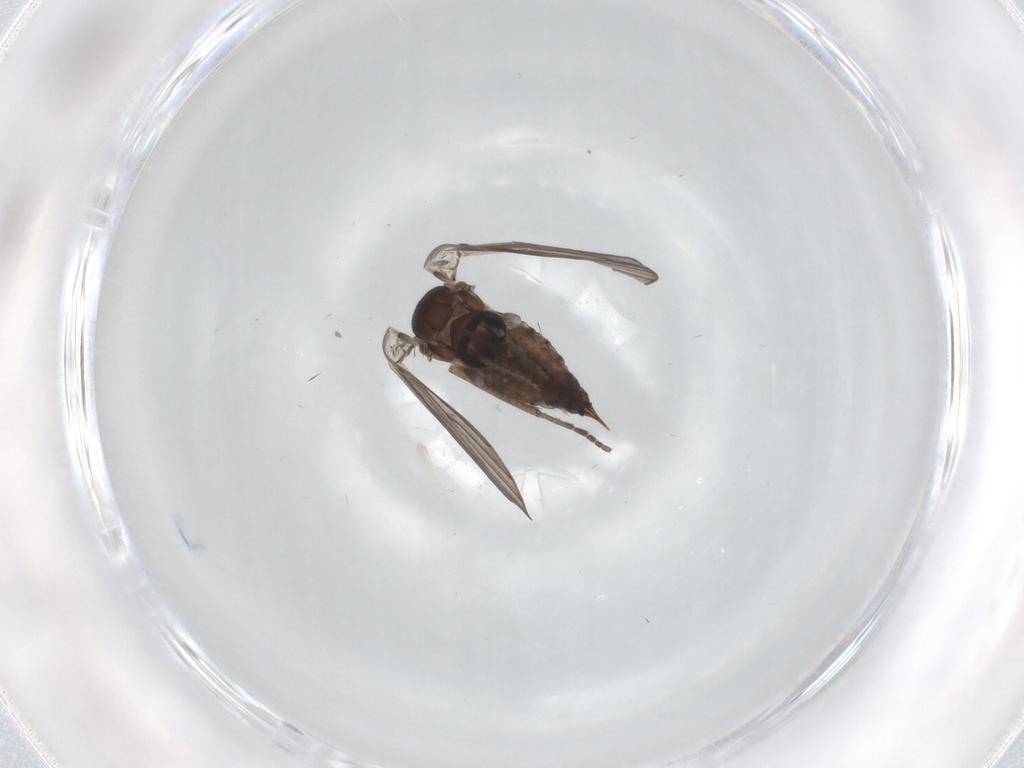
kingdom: Animalia
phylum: Arthropoda
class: Insecta
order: Diptera
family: Psychodidae
